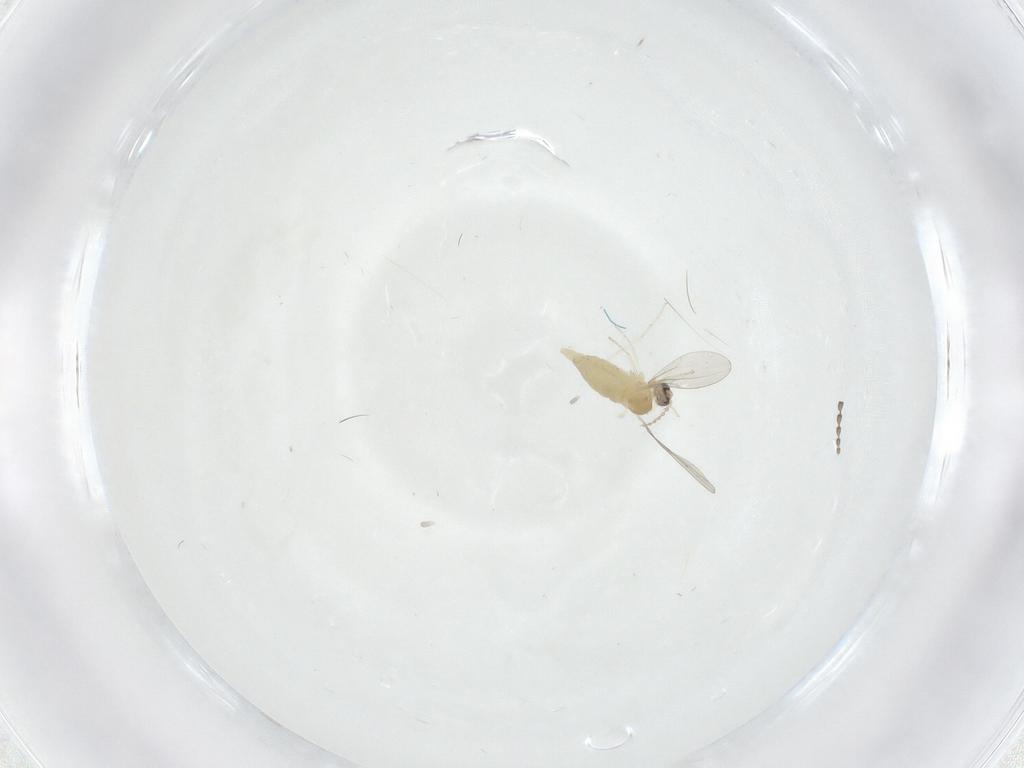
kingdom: Animalia
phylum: Arthropoda
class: Insecta
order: Diptera
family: Cecidomyiidae
